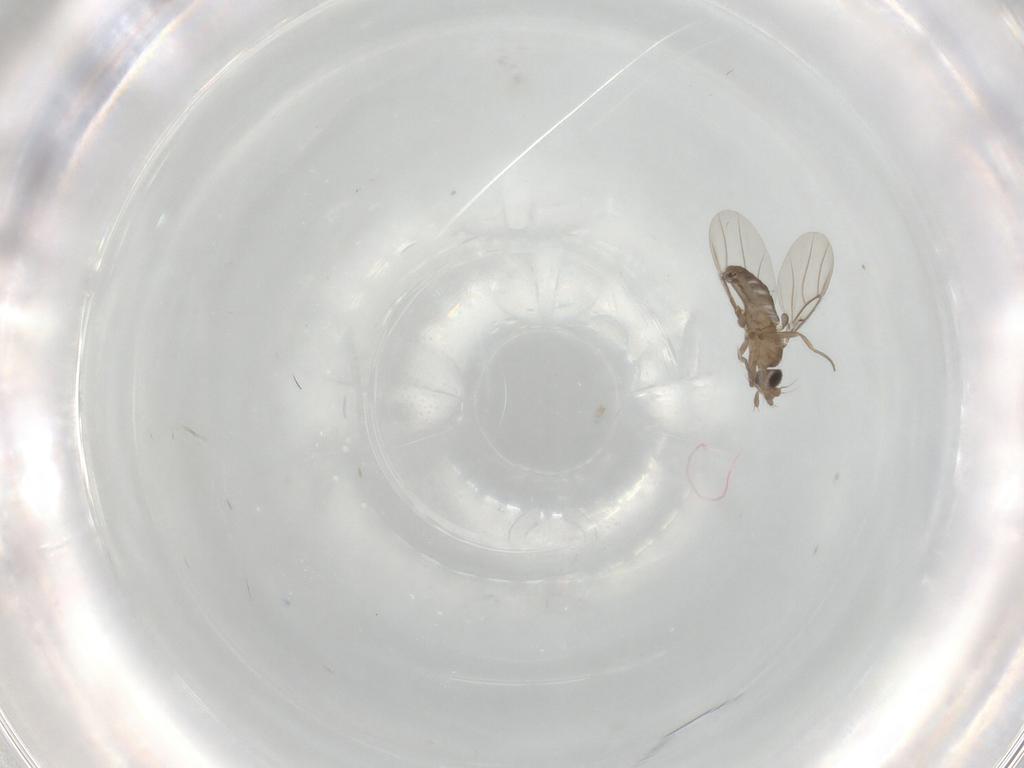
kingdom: Animalia
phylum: Arthropoda
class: Insecta
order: Diptera
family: Phoridae
